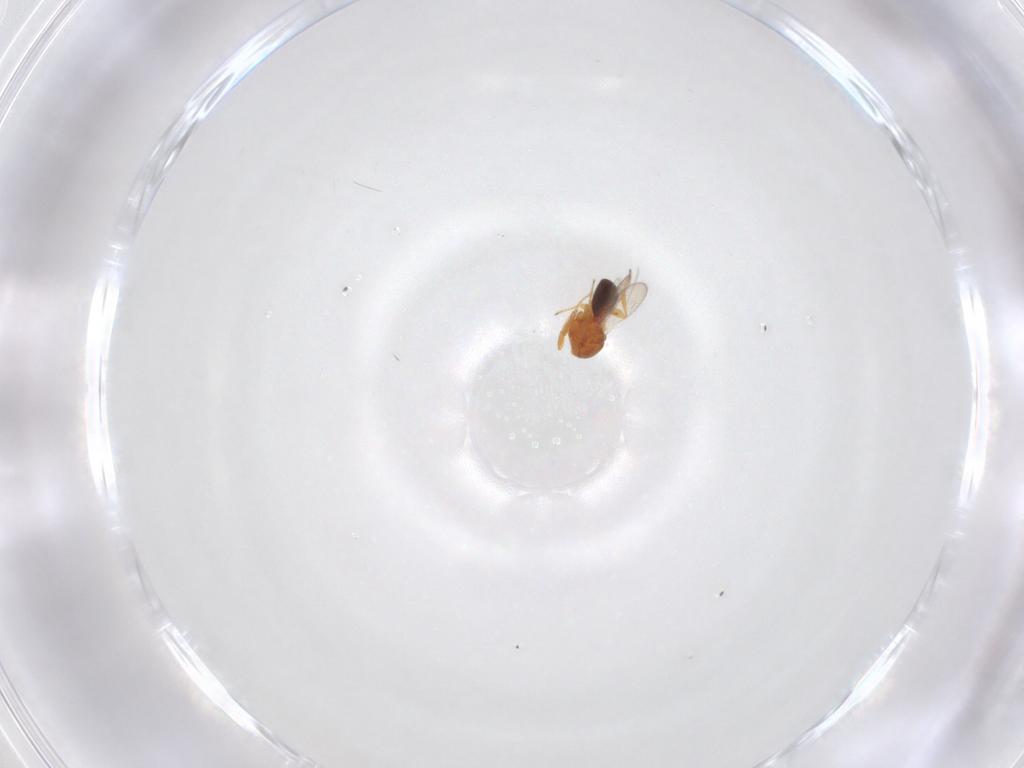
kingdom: Animalia
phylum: Arthropoda
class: Insecta
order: Hymenoptera
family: Platygastridae
